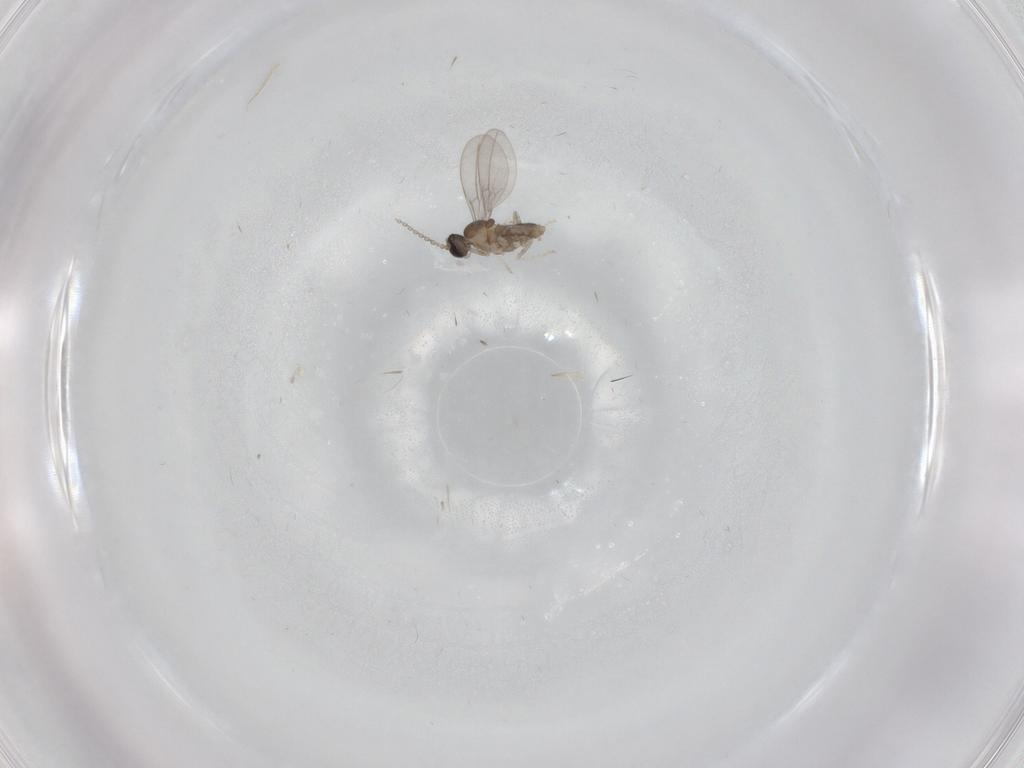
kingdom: Animalia
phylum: Arthropoda
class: Insecta
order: Diptera
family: Cecidomyiidae
